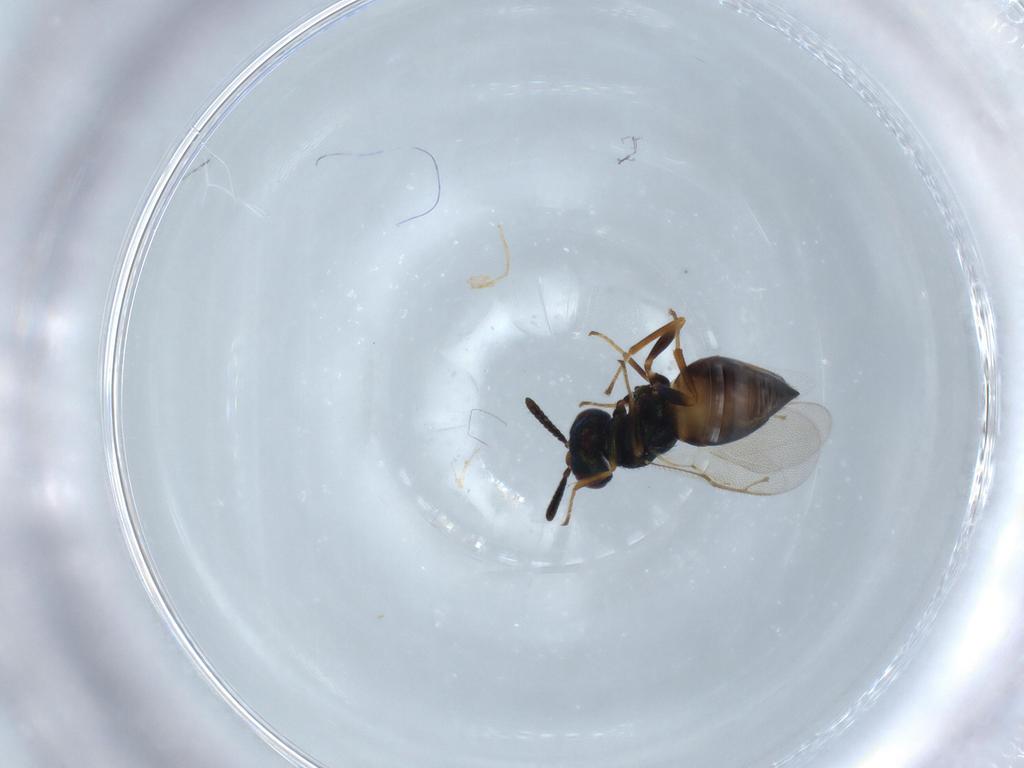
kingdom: Animalia
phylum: Arthropoda
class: Insecta
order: Hymenoptera
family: Pteromalidae
